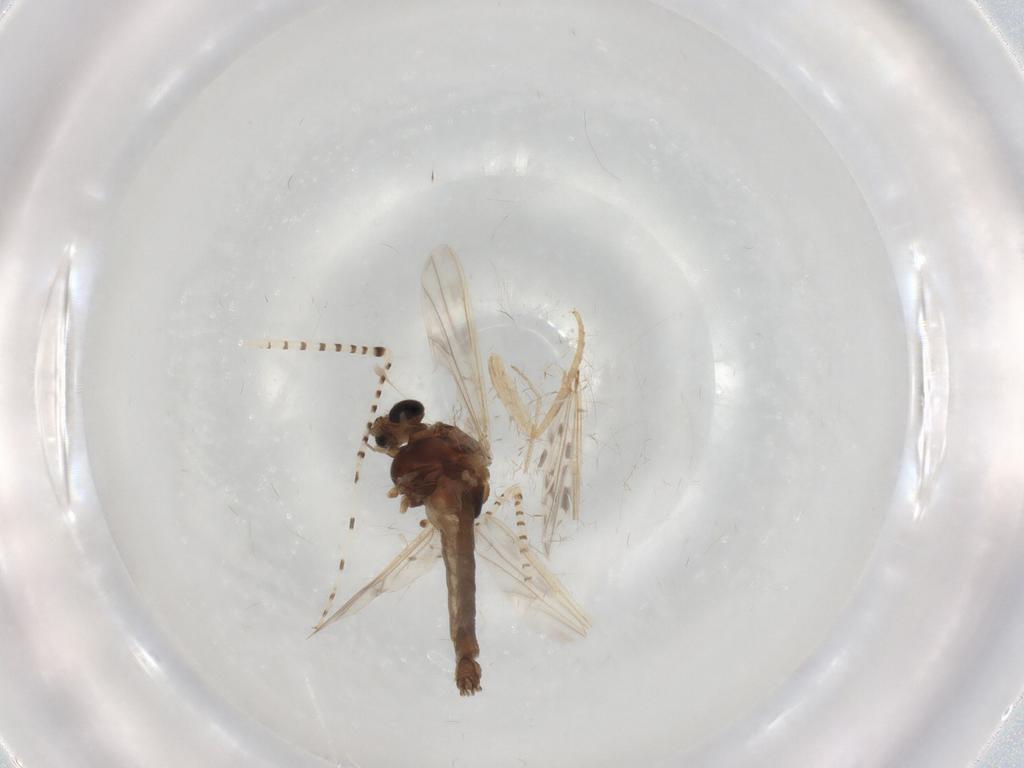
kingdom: Animalia
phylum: Arthropoda
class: Insecta
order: Diptera
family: Chironomidae
